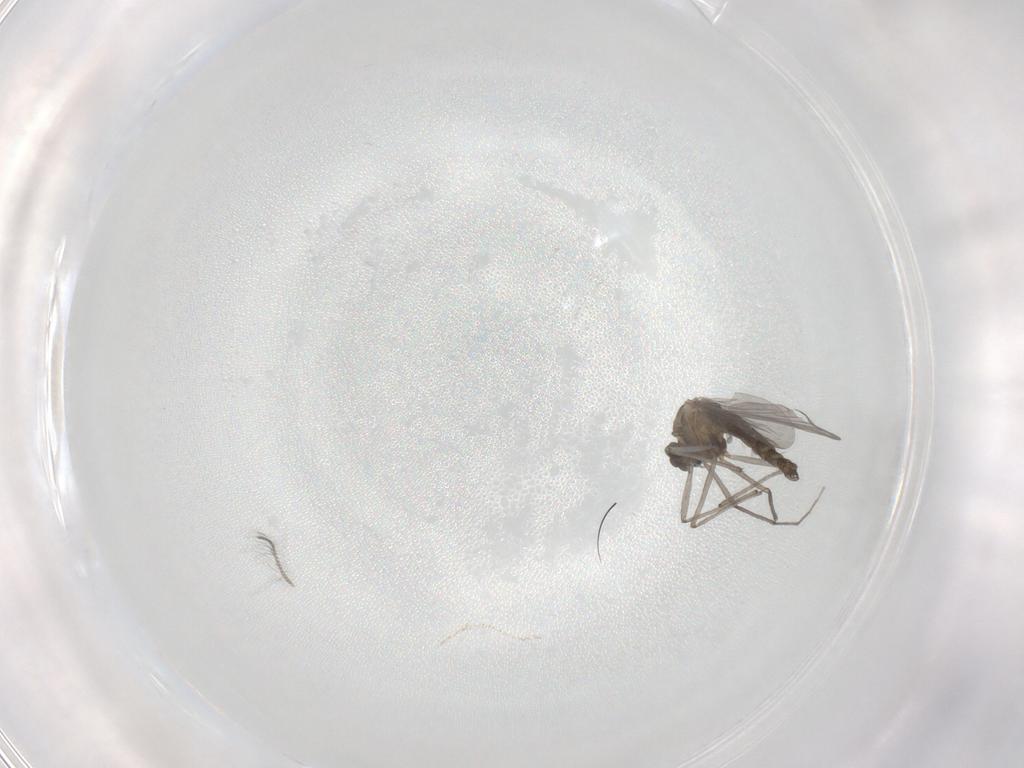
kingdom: Animalia
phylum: Arthropoda
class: Insecta
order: Diptera
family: Chironomidae
